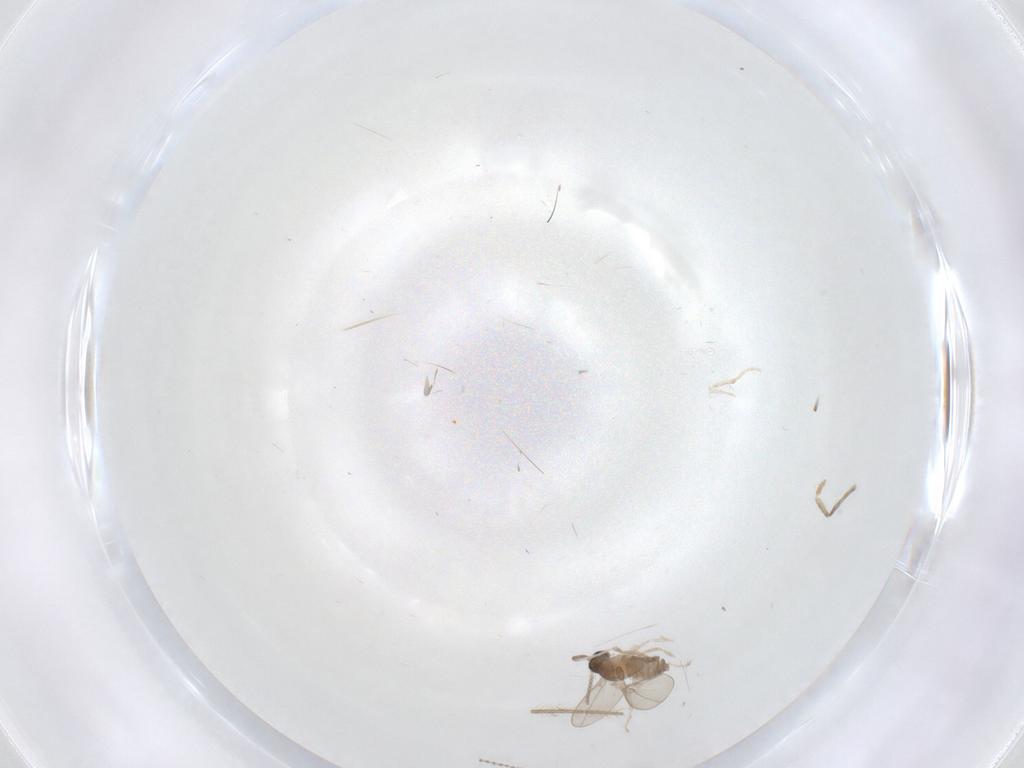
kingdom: Animalia
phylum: Arthropoda
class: Insecta
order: Diptera
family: Cecidomyiidae
